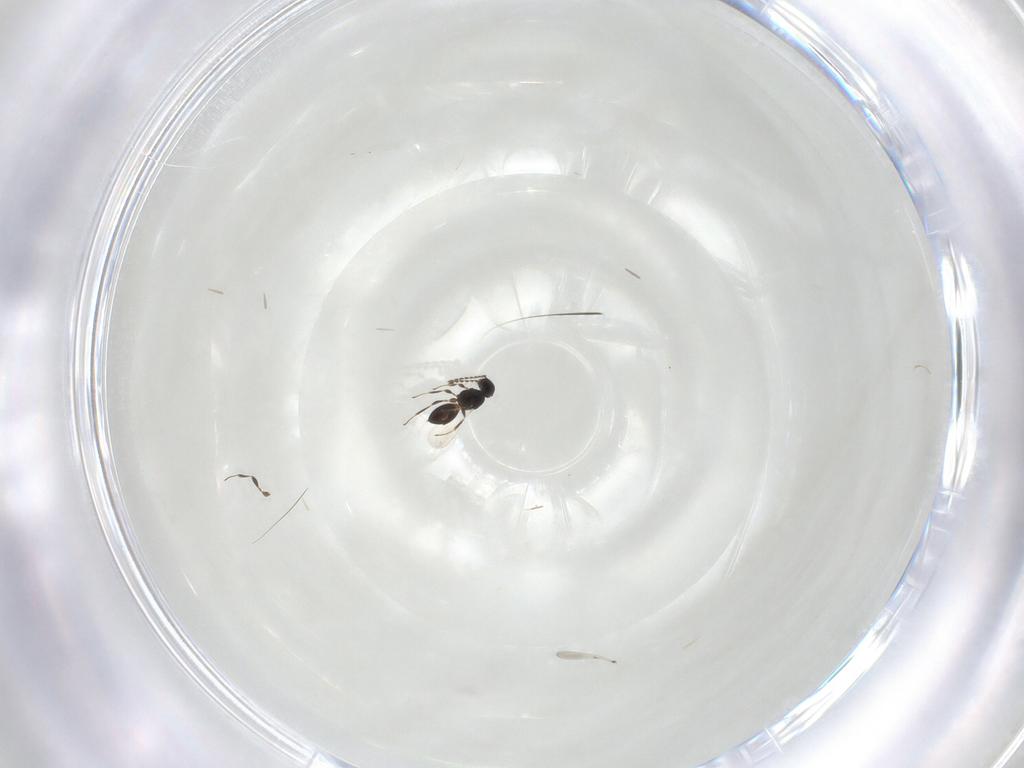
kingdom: Animalia
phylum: Arthropoda
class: Insecta
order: Hymenoptera
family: Platygastridae
